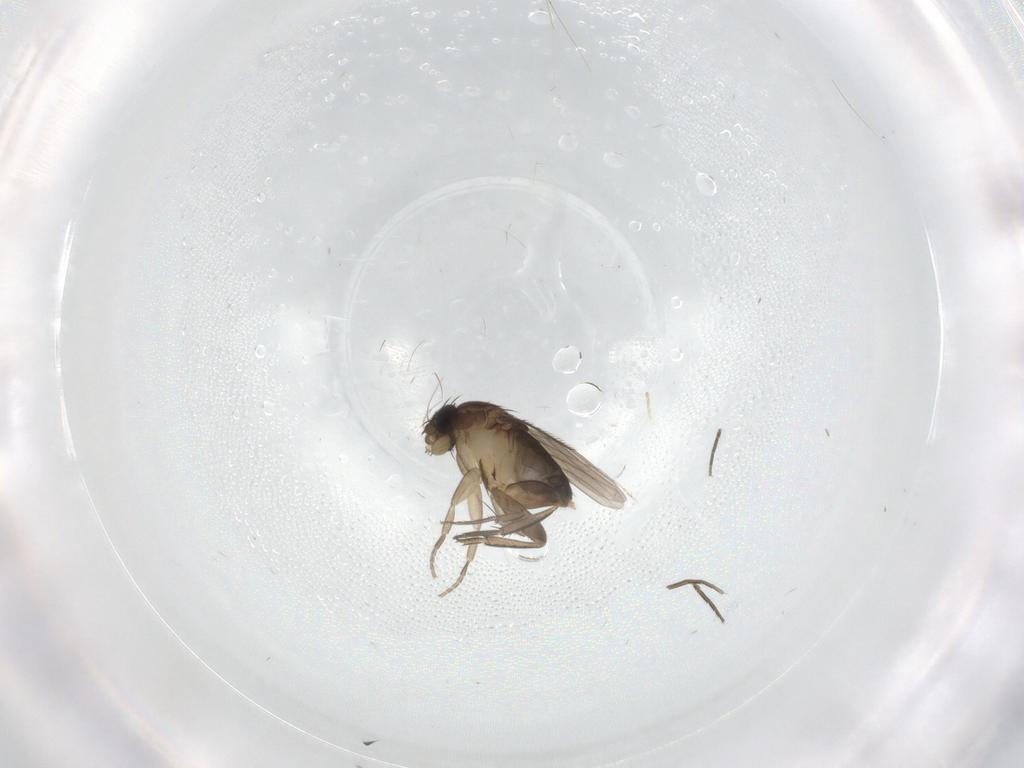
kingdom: Animalia
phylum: Arthropoda
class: Insecta
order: Diptera
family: Phoridae
